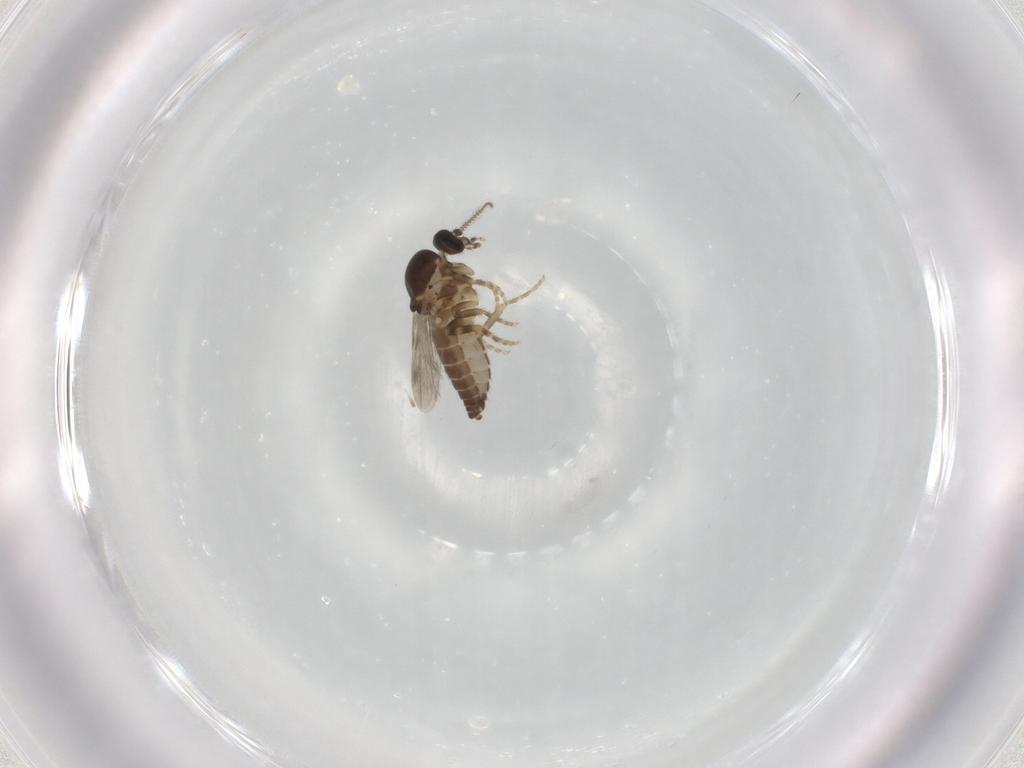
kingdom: Animalia
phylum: Arthropoda
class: Insecta
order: Diptera
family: Ceratopogonidae
